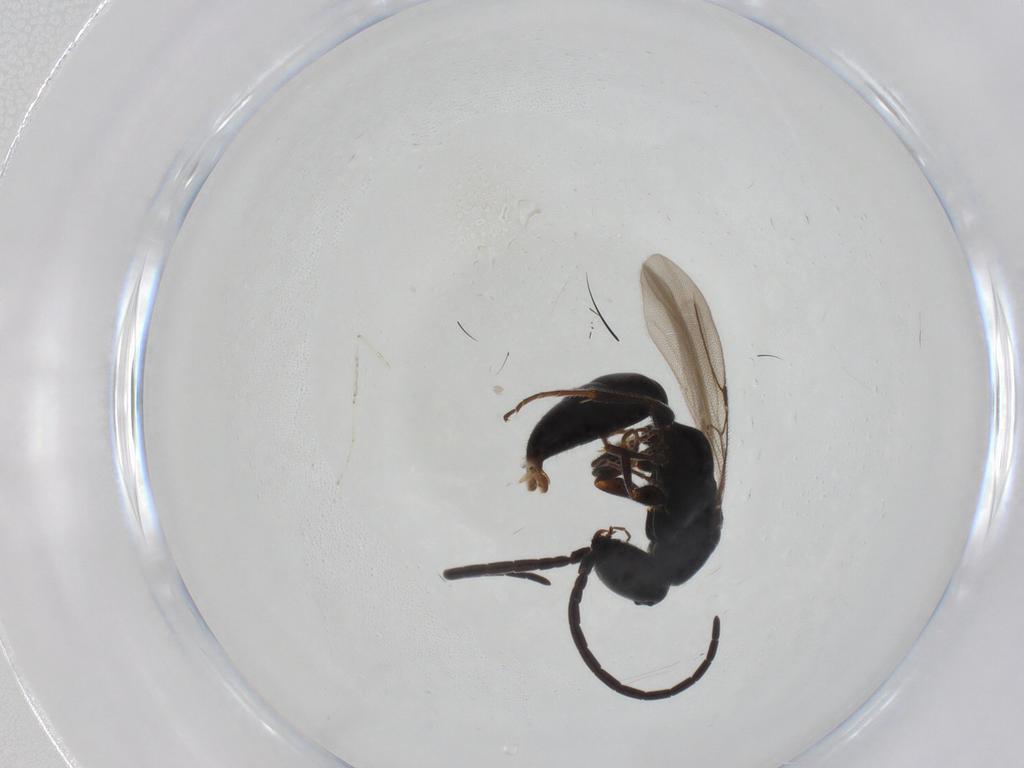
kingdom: Animalia
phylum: Arthropoda
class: Insecta
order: Hymenoptera
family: Bethylidae
